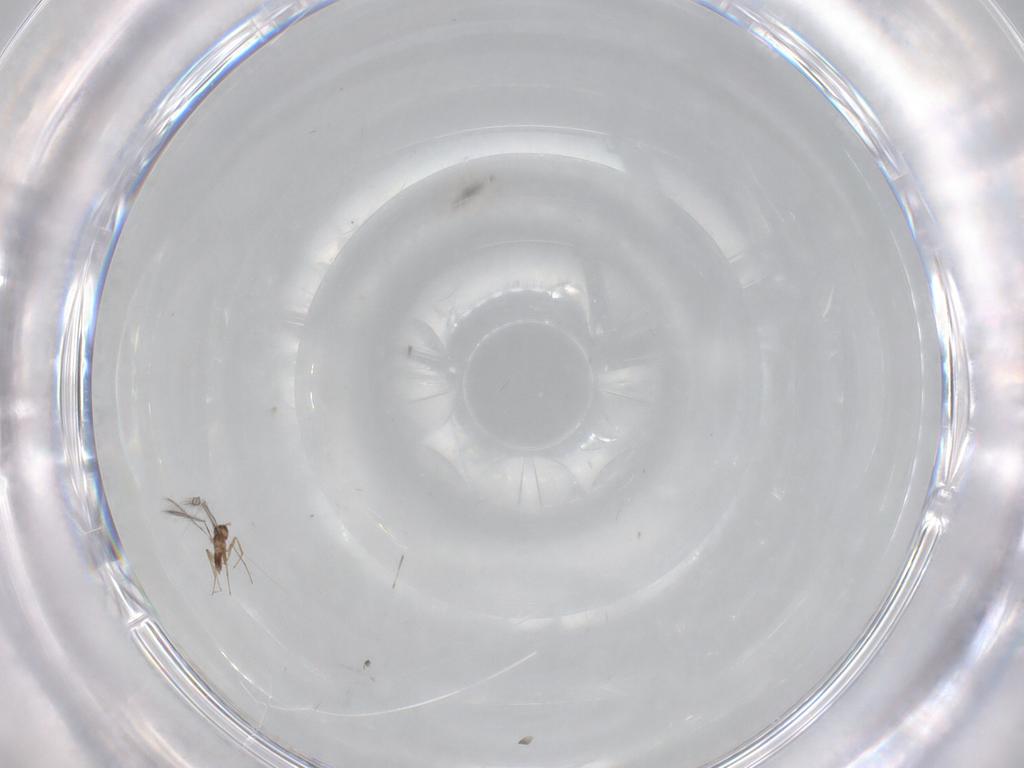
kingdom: Animalia
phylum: Arthropoda
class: Insecta
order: Hymenoptera
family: Mymaridae
